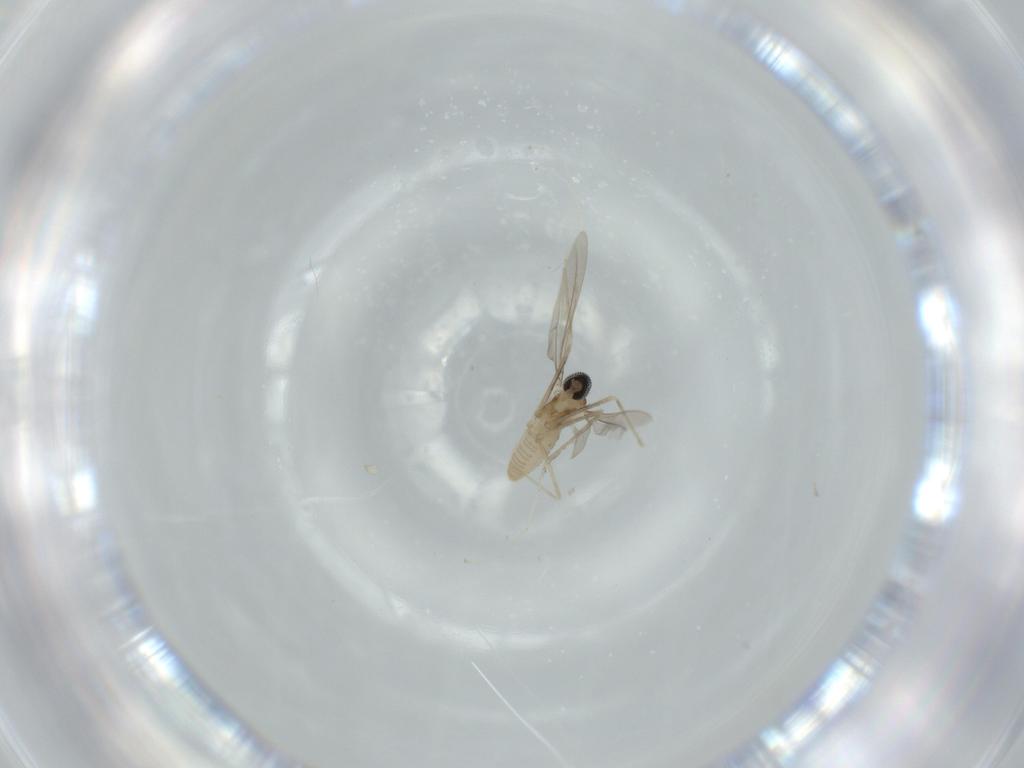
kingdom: Animalia
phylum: Arthropoda
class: Insecta
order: Diptera
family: Cecidomyiidae
